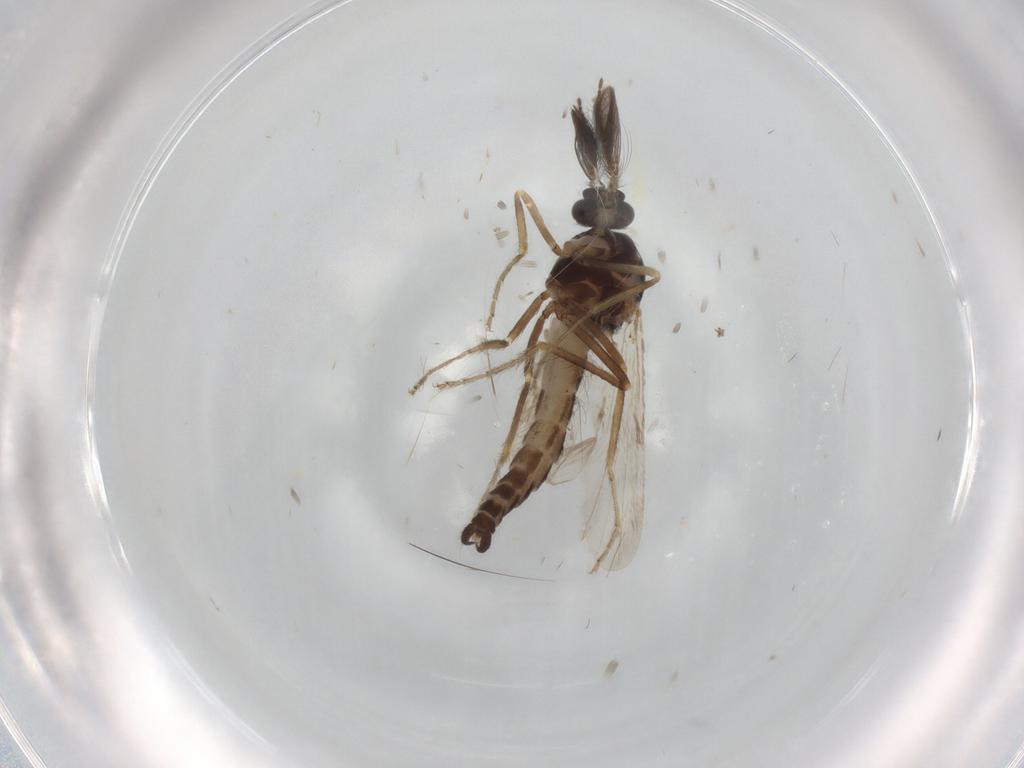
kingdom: Animalia
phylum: Arthropoda
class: Insecta
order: Diptera
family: Ceratopogonidae
